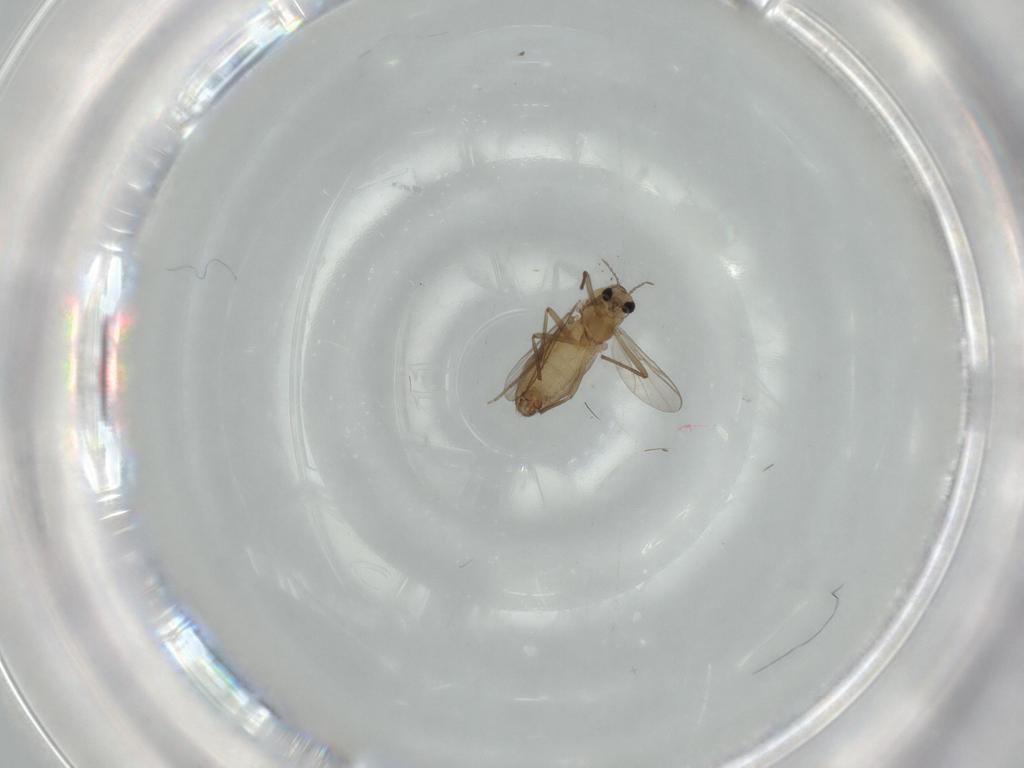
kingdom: Animalia
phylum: Arthropoda
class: Insecta
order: Diptera
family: Chironomidae
